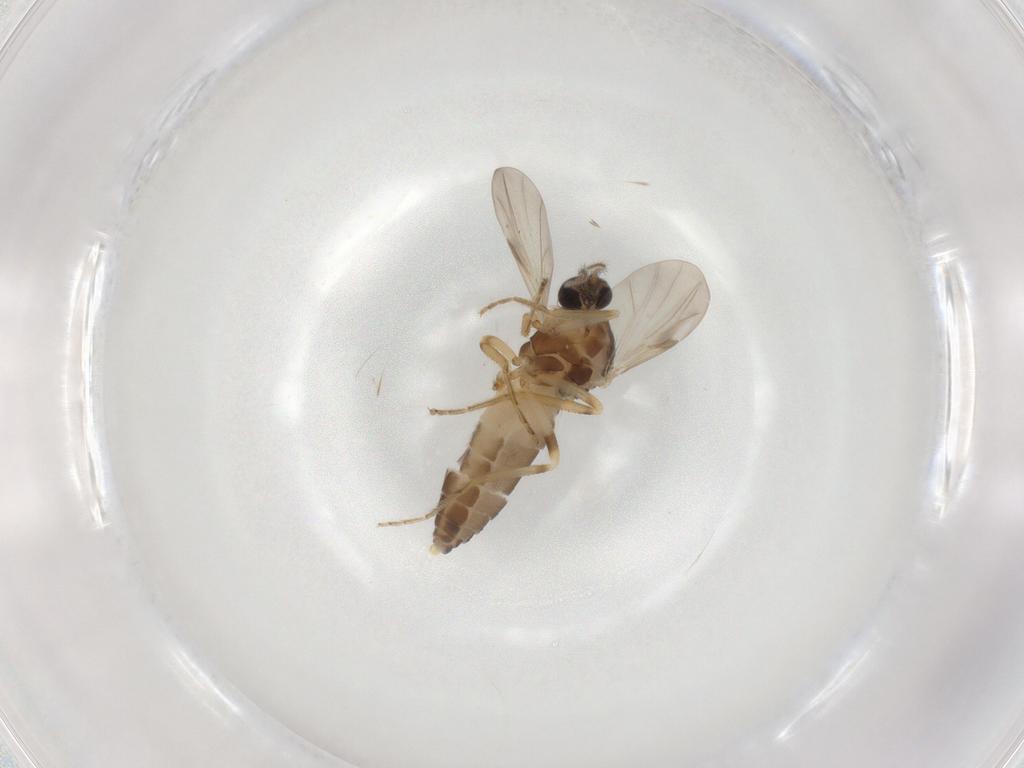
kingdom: Animalia
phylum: Arthropoda
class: Insecta
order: Diptera
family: Ceratopogonidae
